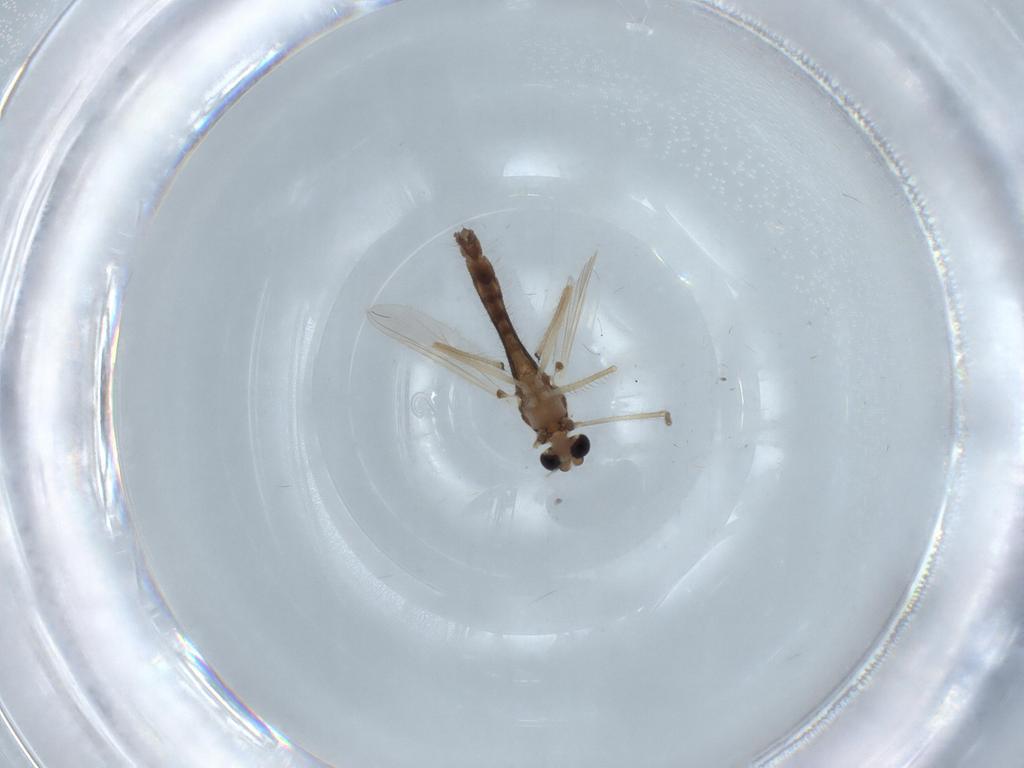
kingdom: Animalia
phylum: Arthropoda
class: Insecta
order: Diptera
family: Chironomidae
